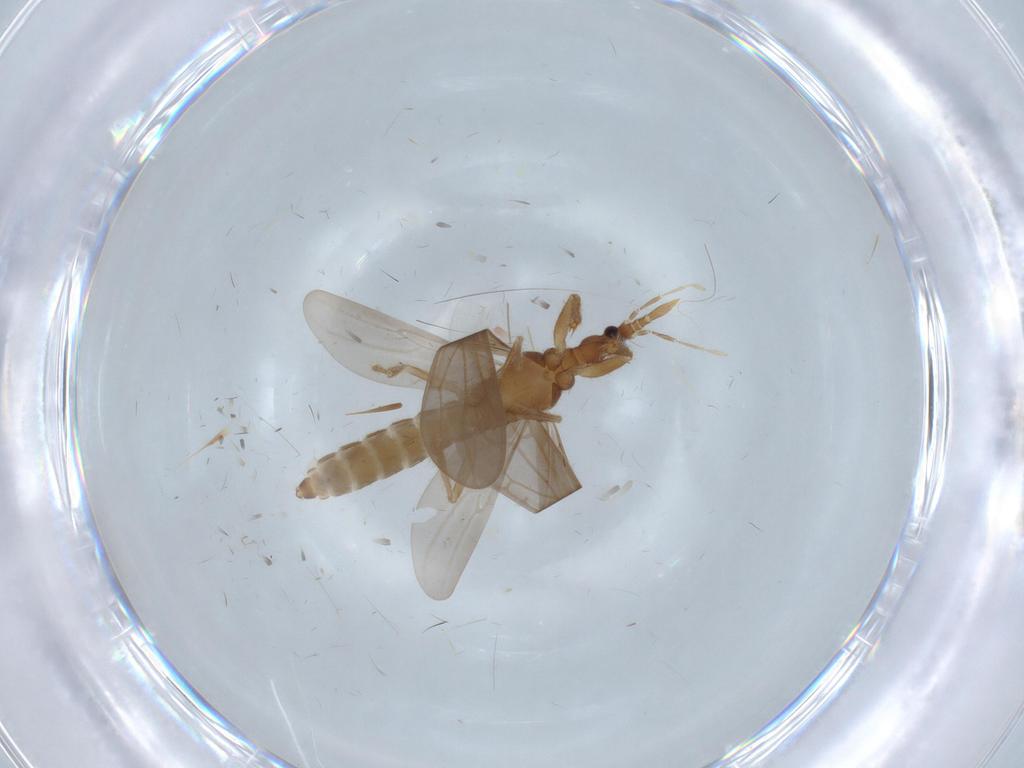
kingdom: Animalia
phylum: Arthropoda
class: Insecta
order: Hemiptera
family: Enicocephalidae
